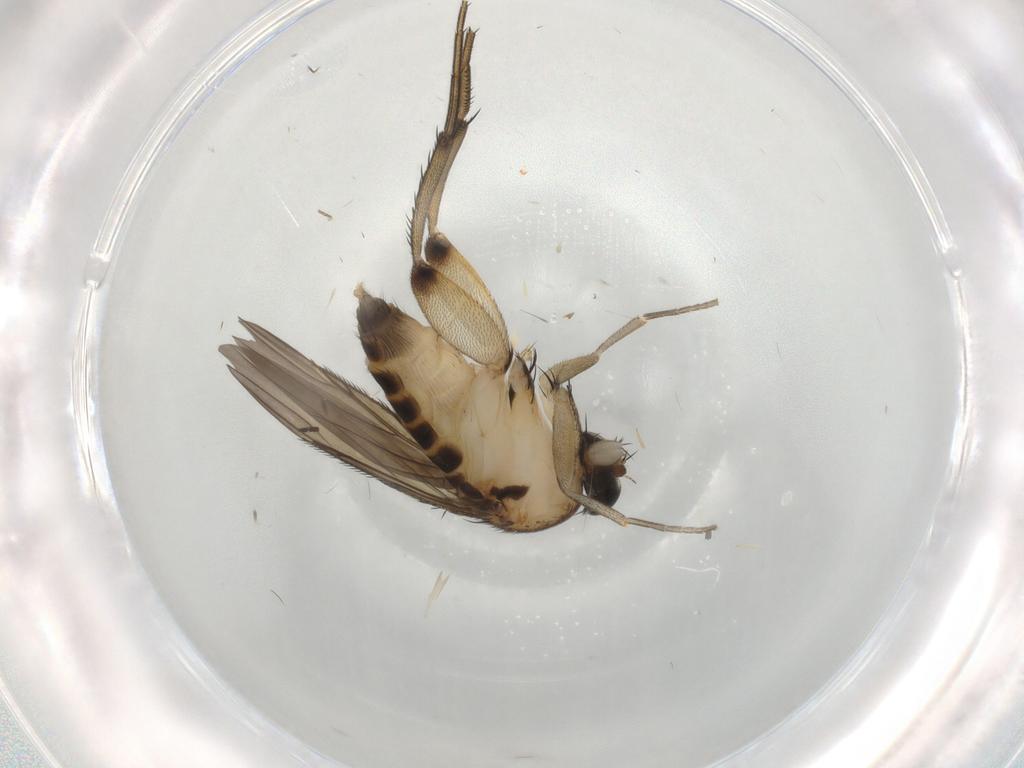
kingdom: Animalia
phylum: Arthropoda
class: Insecta
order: Diptera
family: Phoridae
